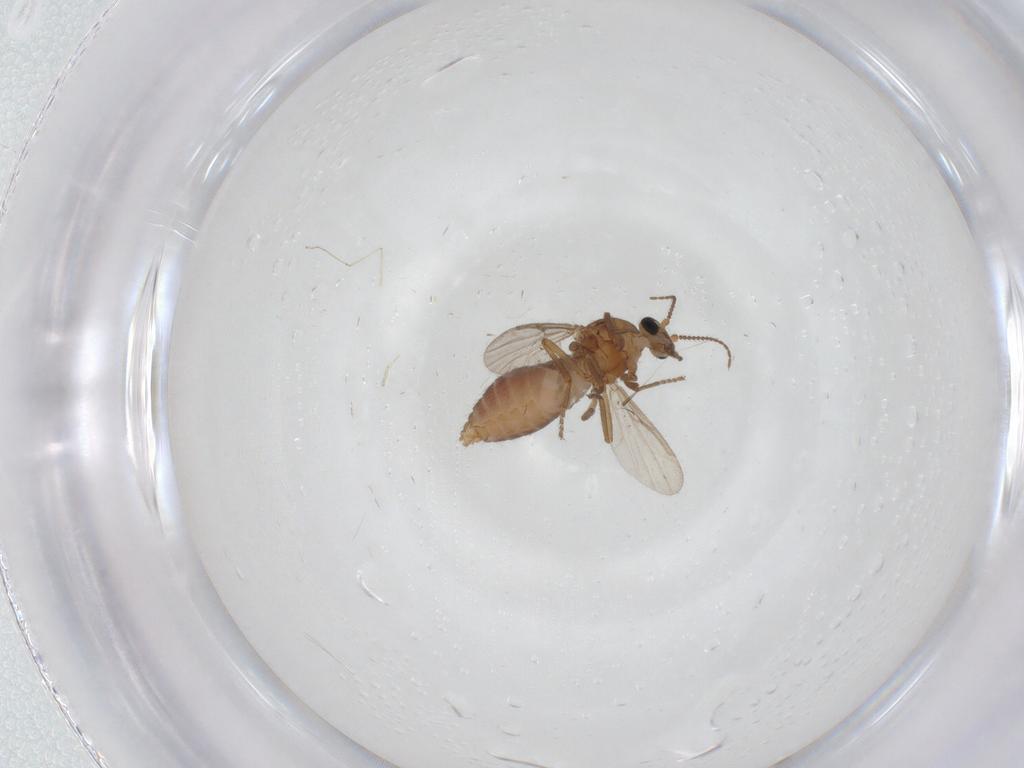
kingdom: Animalia
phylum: Arthropoda
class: Insecta
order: Diptera
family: Ceratopogonidae
